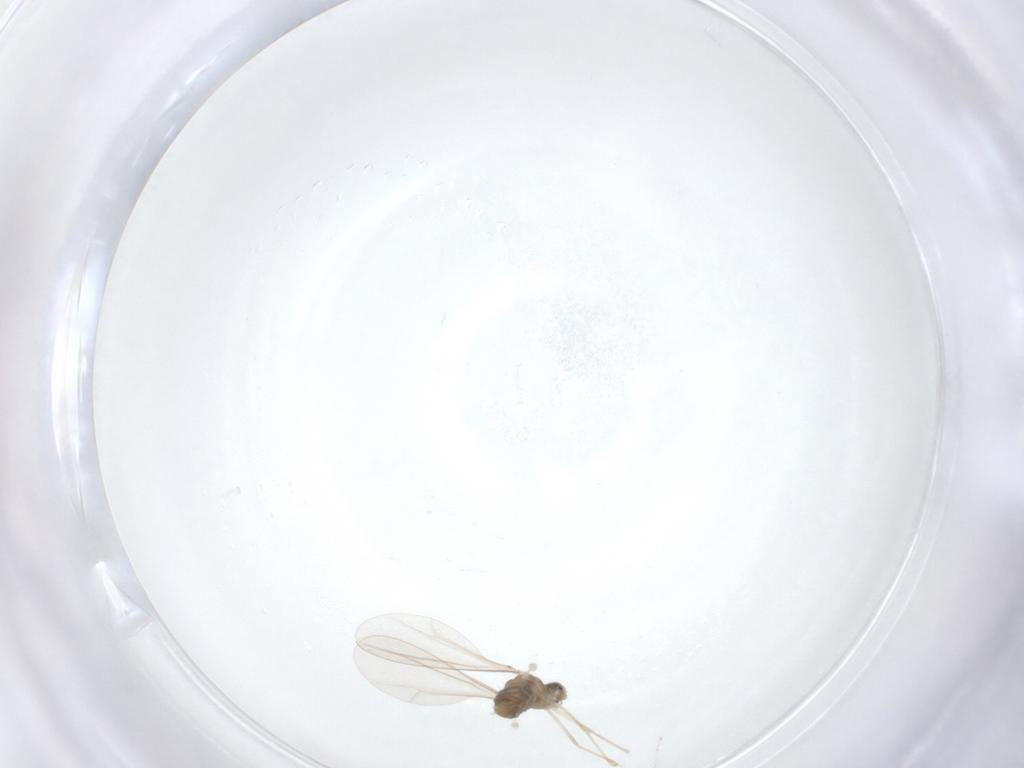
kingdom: Animalia
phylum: Arthropoda
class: Insecta
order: Diptera
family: Cecidomyiidae
